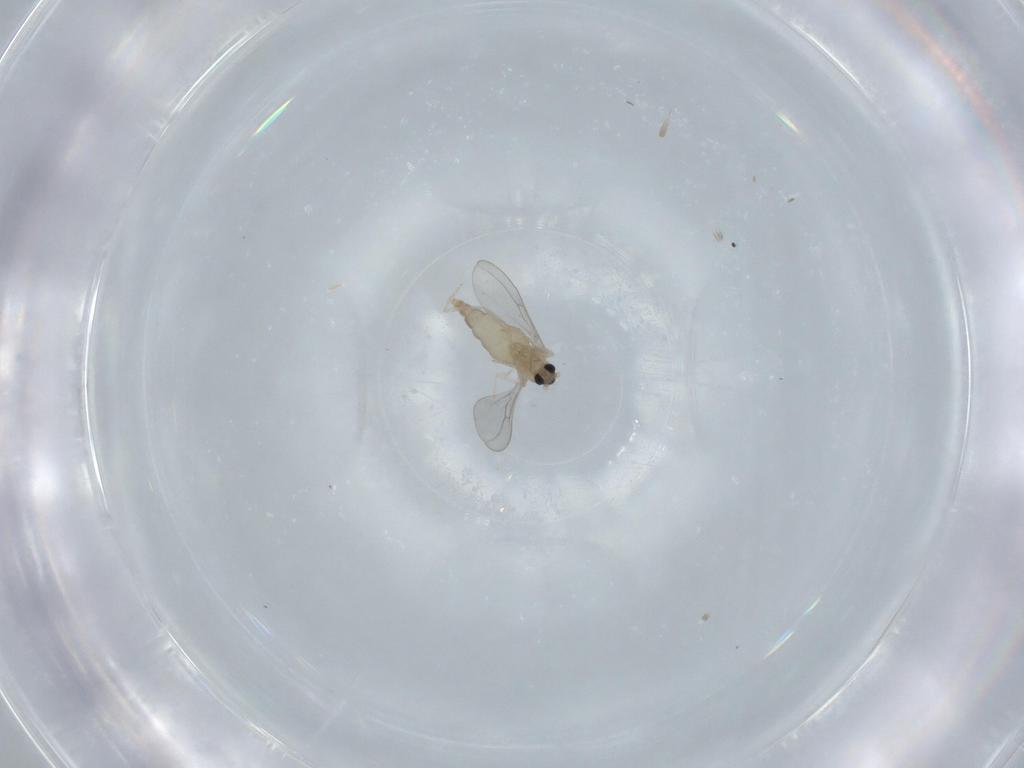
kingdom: Animalia
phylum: Arthropoda
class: Insecta
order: Diptera
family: Cecidomyiidae
